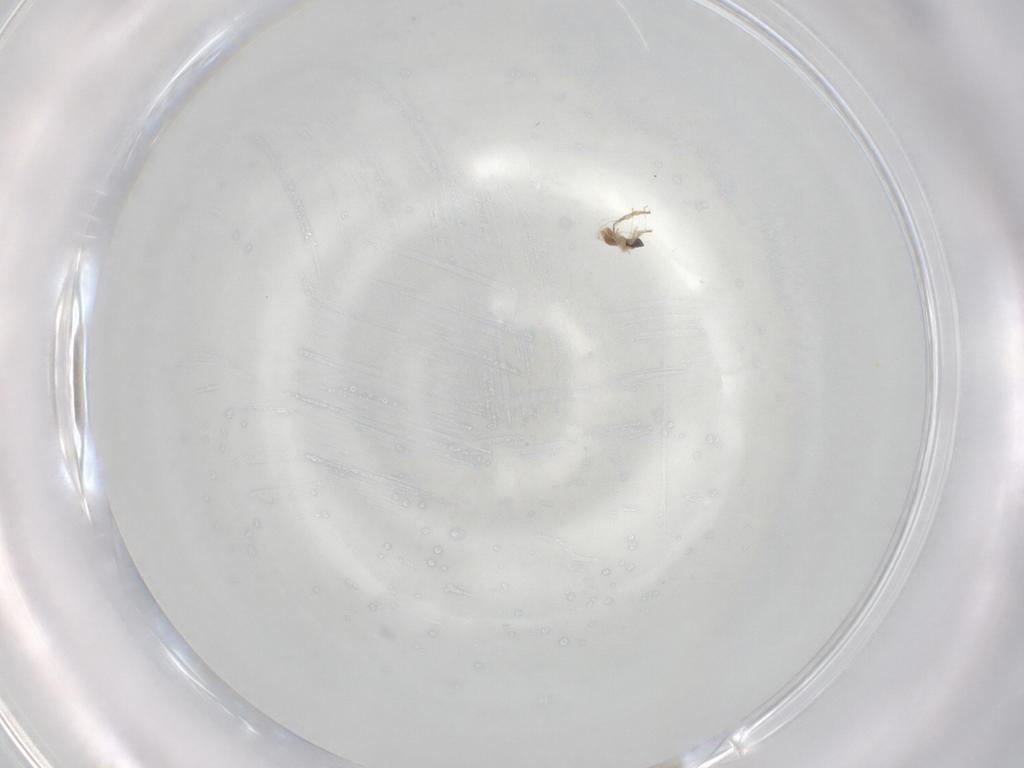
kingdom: Animalia
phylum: Arthropoda
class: Insecta
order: Diptera
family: Cecidomyiidae
